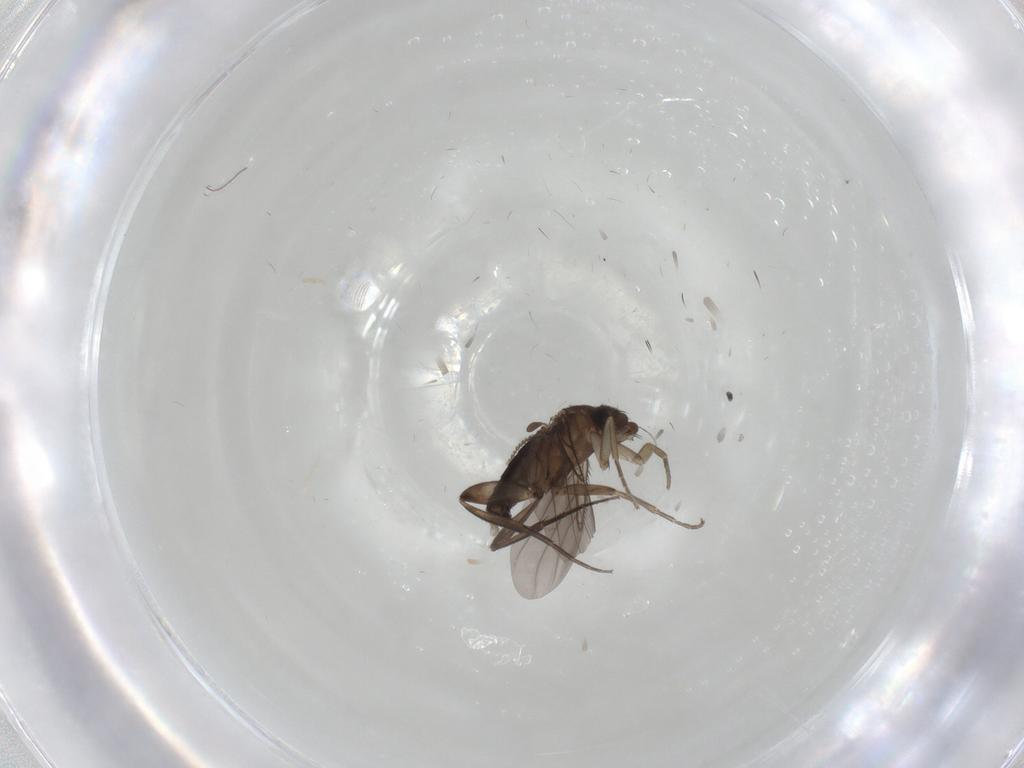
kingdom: Animalia
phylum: Arthropoda
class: Insecta
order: Diptera
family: Phoridae
